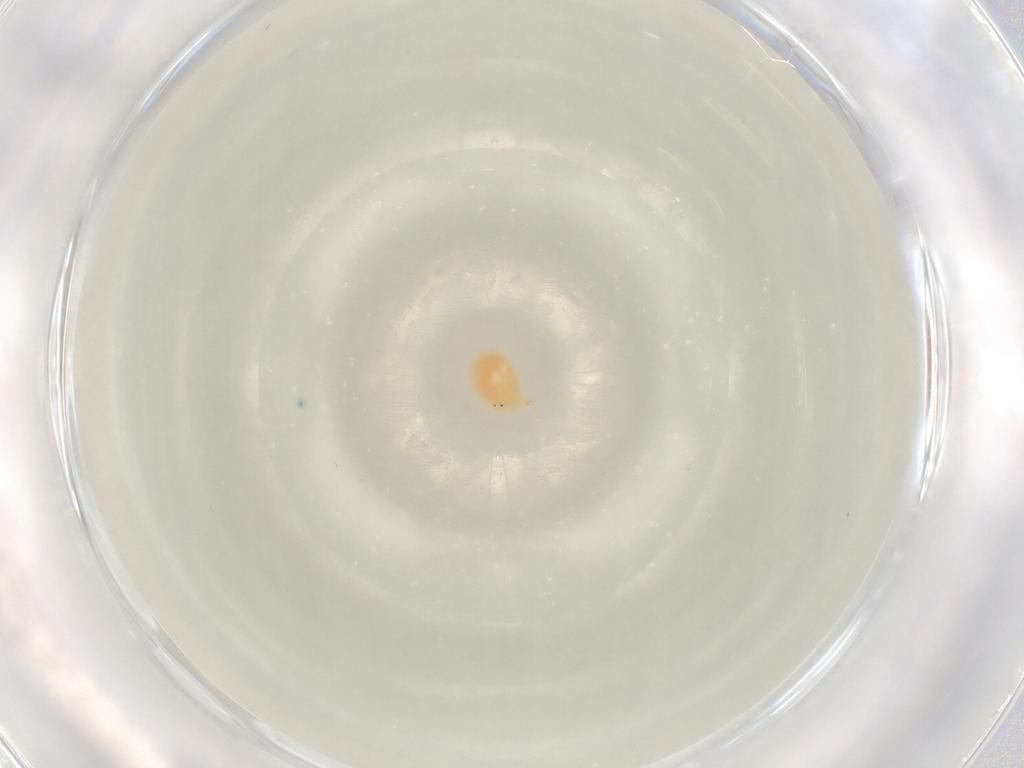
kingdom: Animalia
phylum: Arthropoda
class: Arachnida
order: Trombidiformes
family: Hydryphantidae
